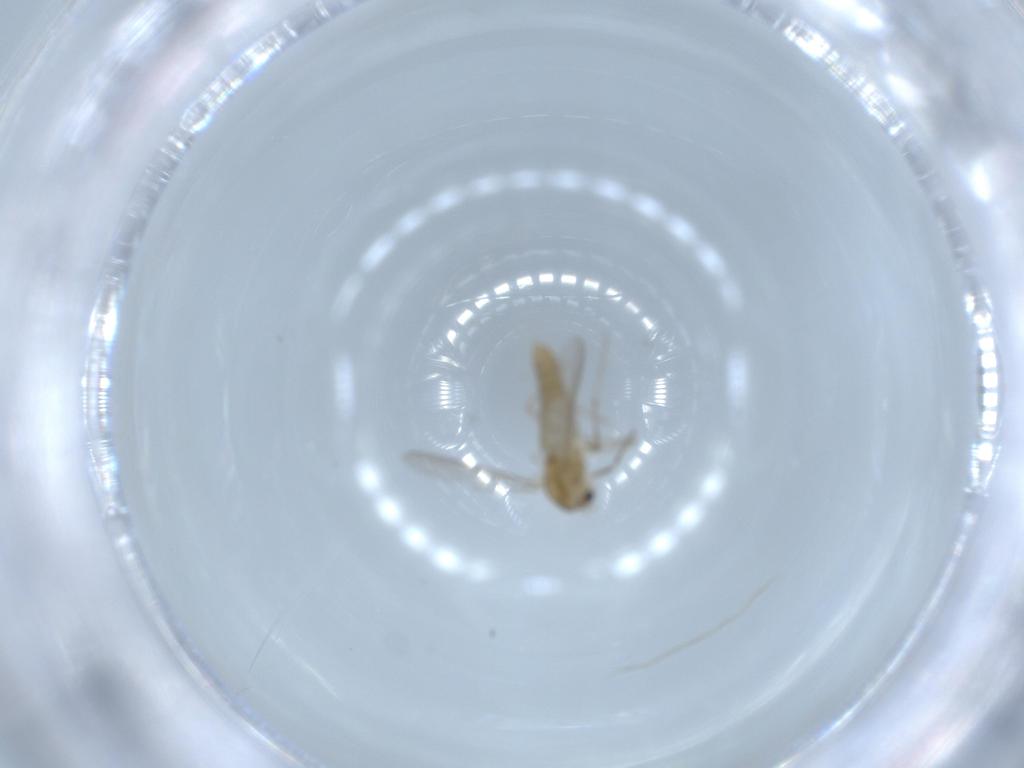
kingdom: Animalia
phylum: Arthropoda
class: Insecta
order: Diptera
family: Chironomidae
